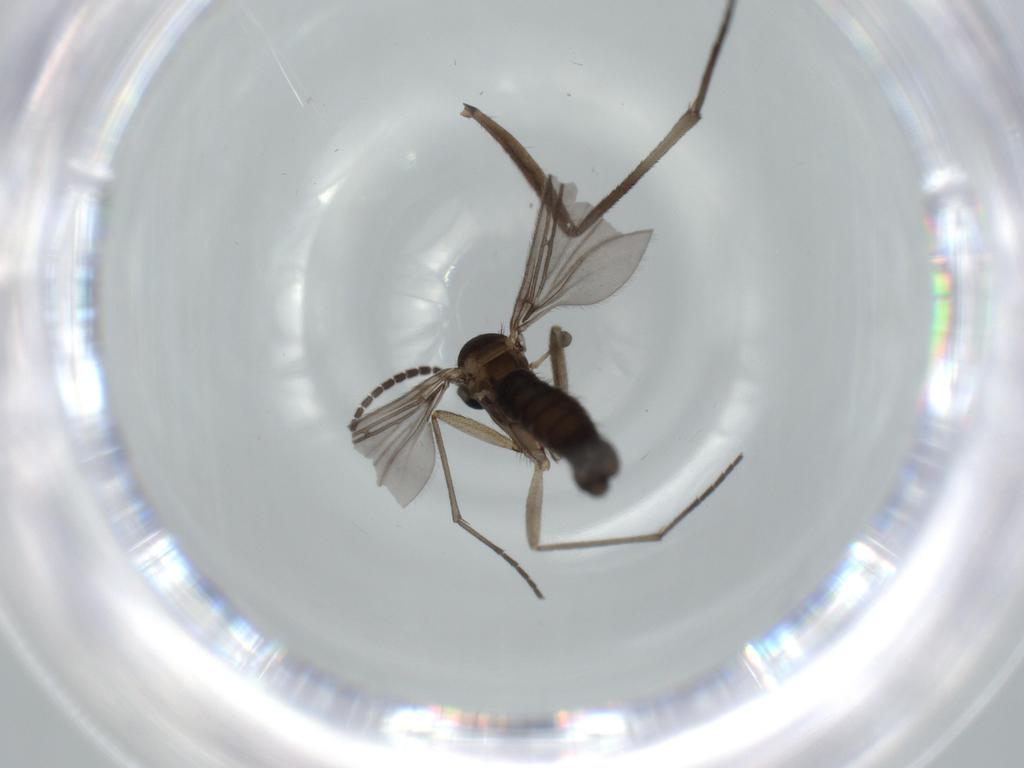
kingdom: Animalia
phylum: Arthropoda
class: Insecta
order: Diptera
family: Sciaridae
